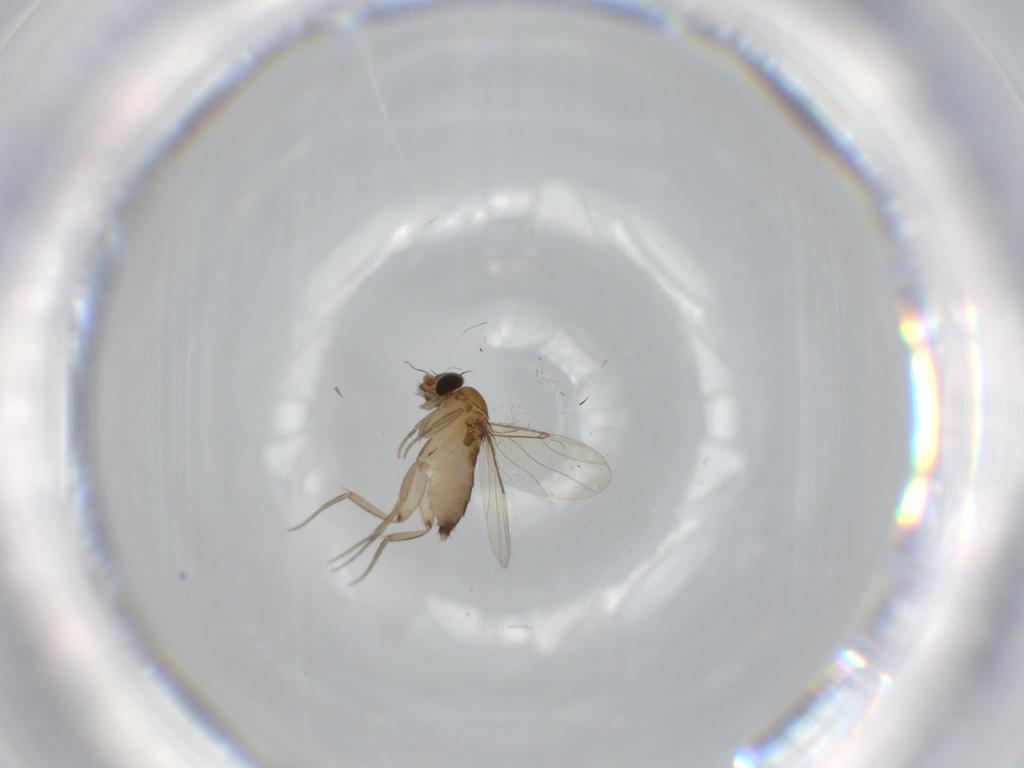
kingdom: Animalia
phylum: Arthropoda
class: Insecta
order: Diptera
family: Phoridae
